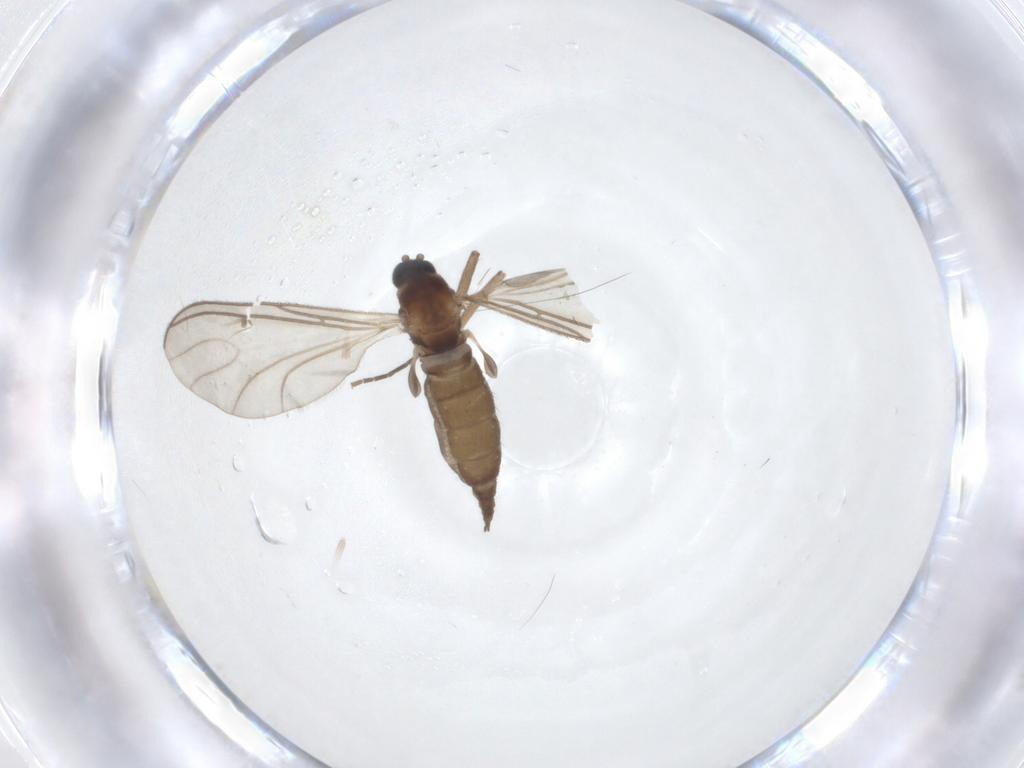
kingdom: Animalia
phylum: Arthropoda
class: Insecta
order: Diptera
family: Sciaridae
